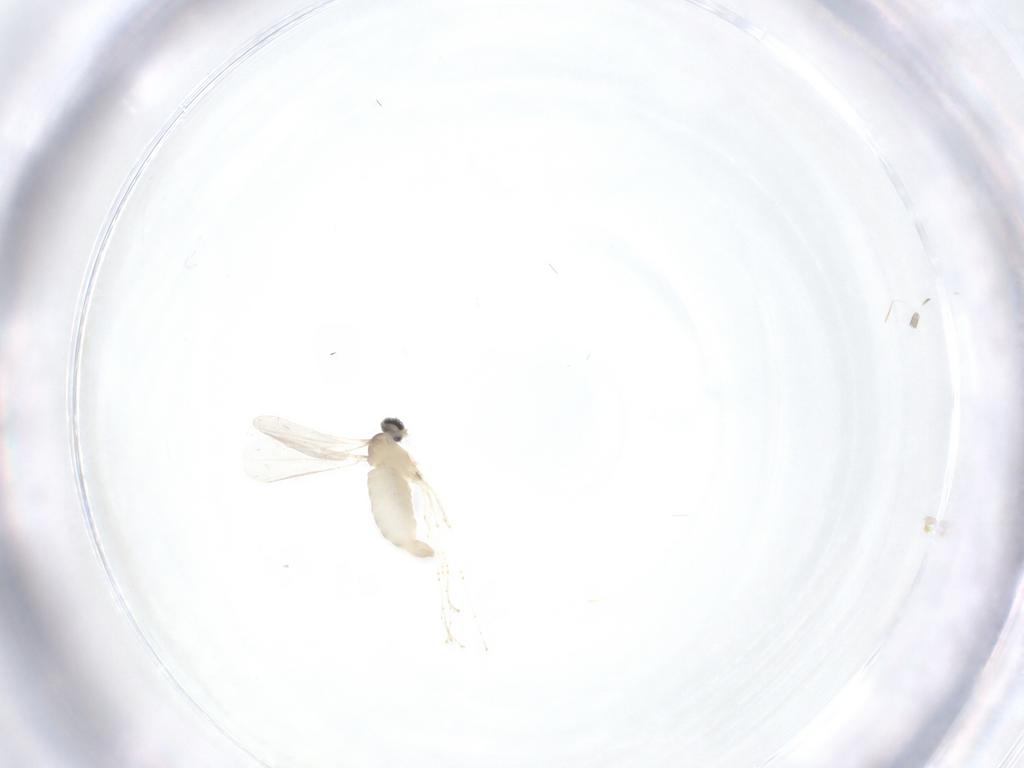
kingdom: Animalia
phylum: Arthropoda
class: Insecta
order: Diptera
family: Cecidomyiidae
